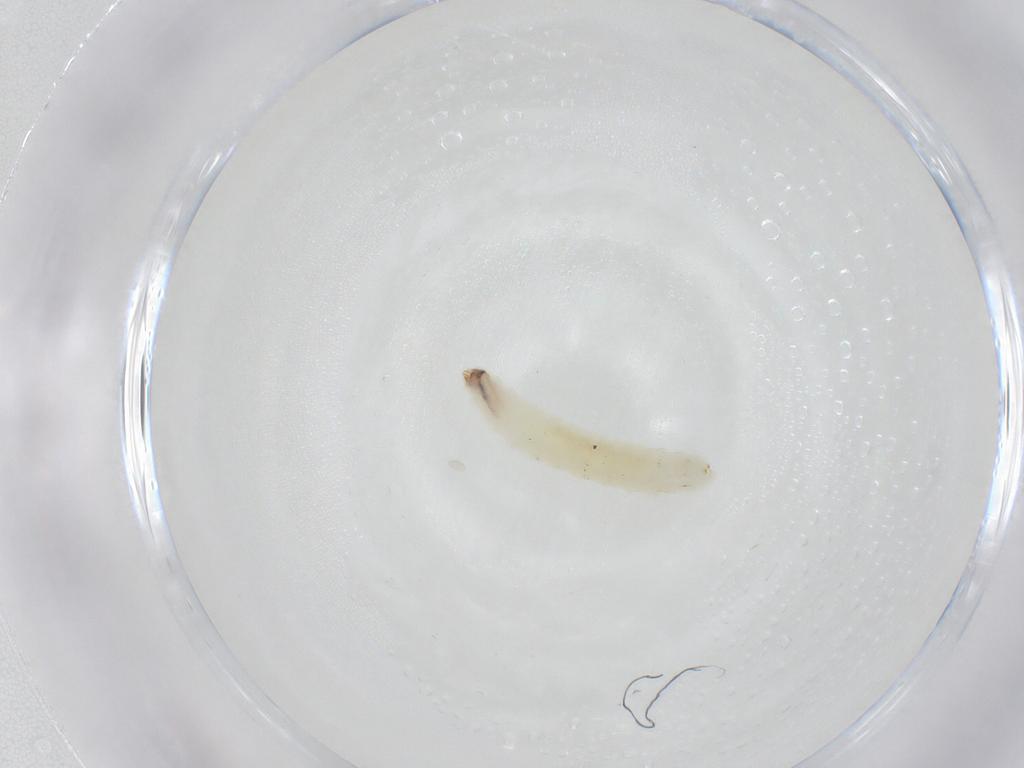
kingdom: Animalia
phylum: Arthropoda
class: Insecta
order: Diptera
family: Empididae
